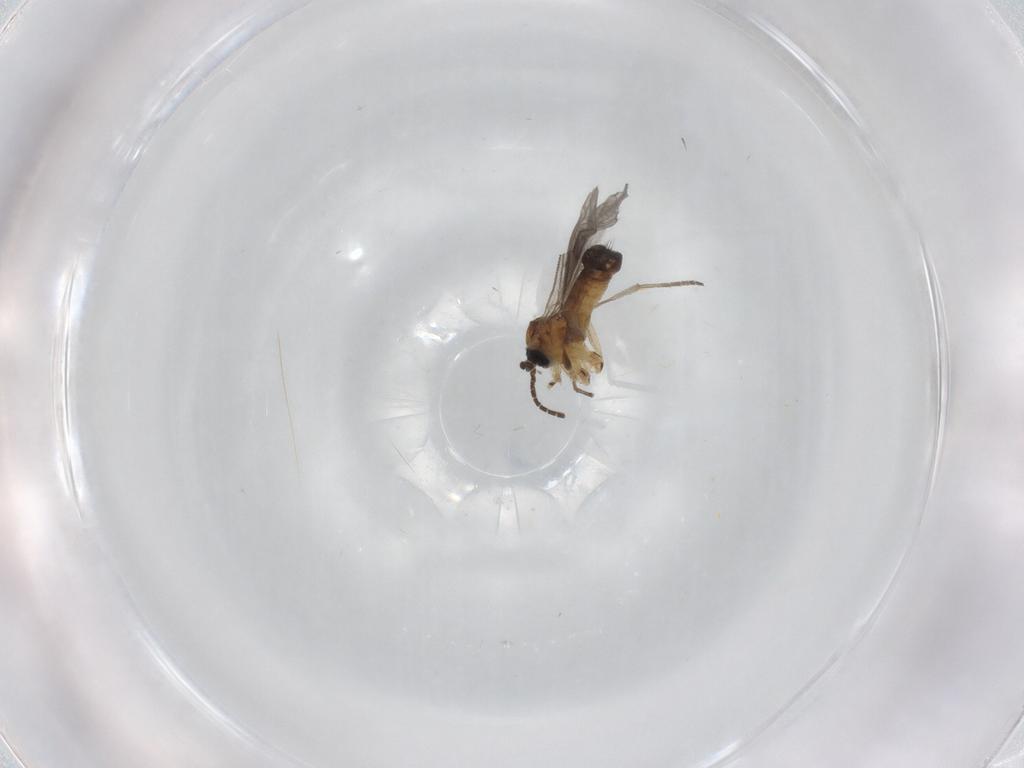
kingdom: Animalia
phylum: Arthropoda
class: Insecta
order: Diptera
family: Sciaridae
